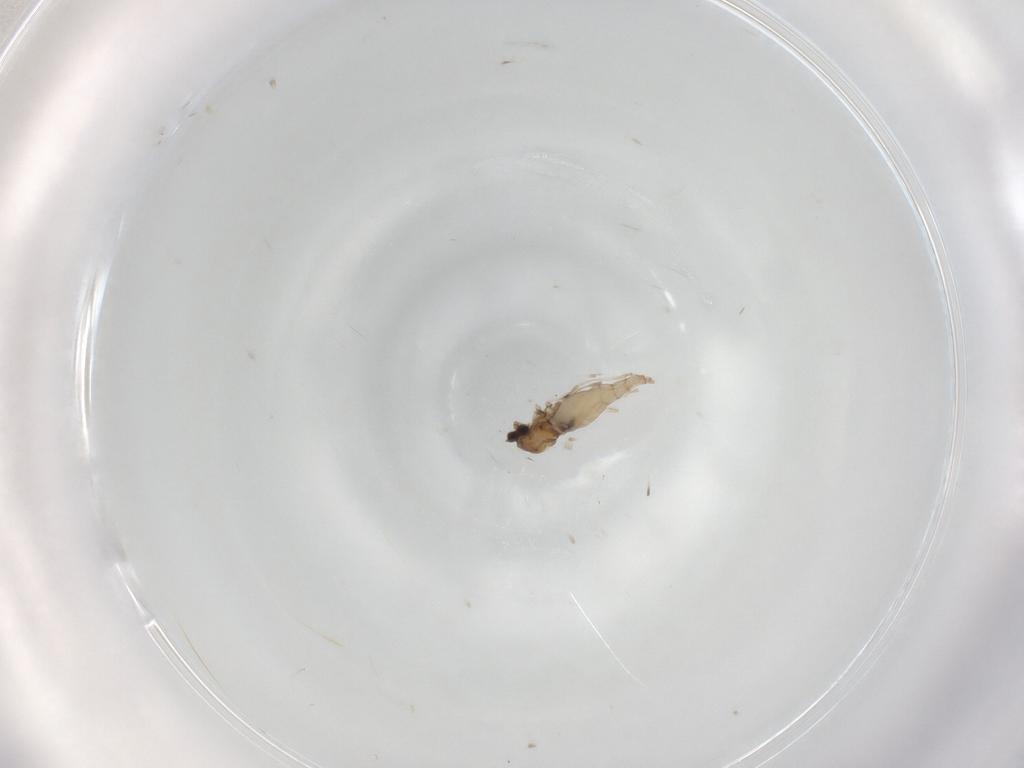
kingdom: Animalia
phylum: Arthropoda
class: Insecta
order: Diptera
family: Cecidomyiidae
